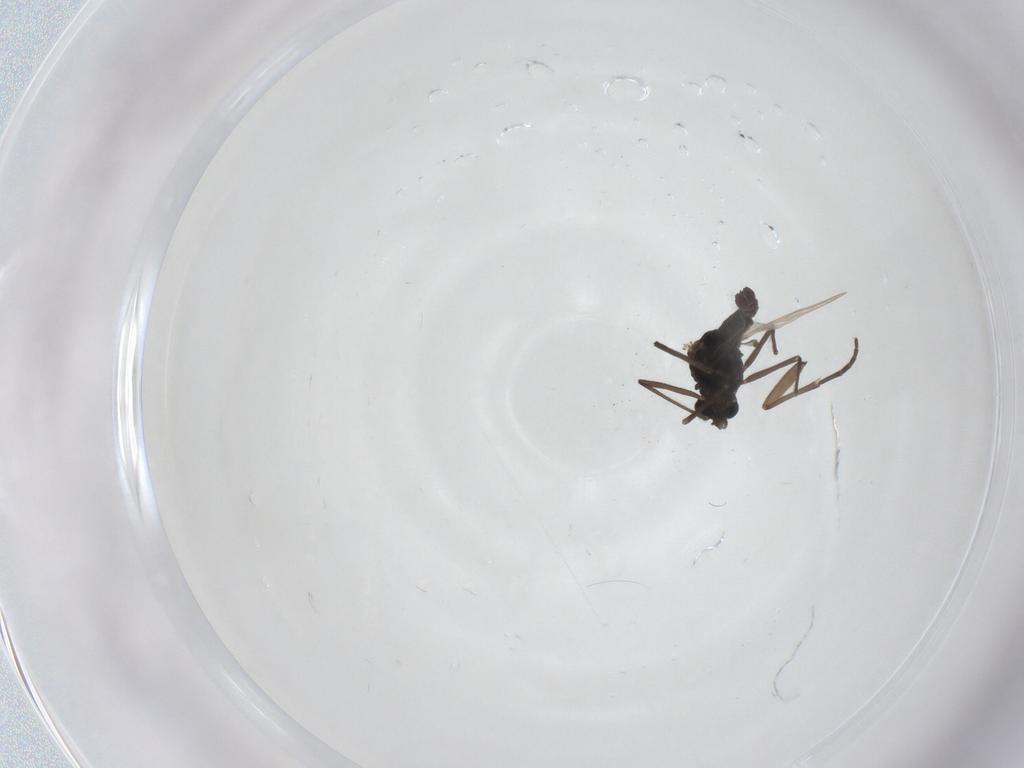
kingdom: Animalia
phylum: Arthropoda
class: Insecta
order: Diptera
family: Sciaridae
